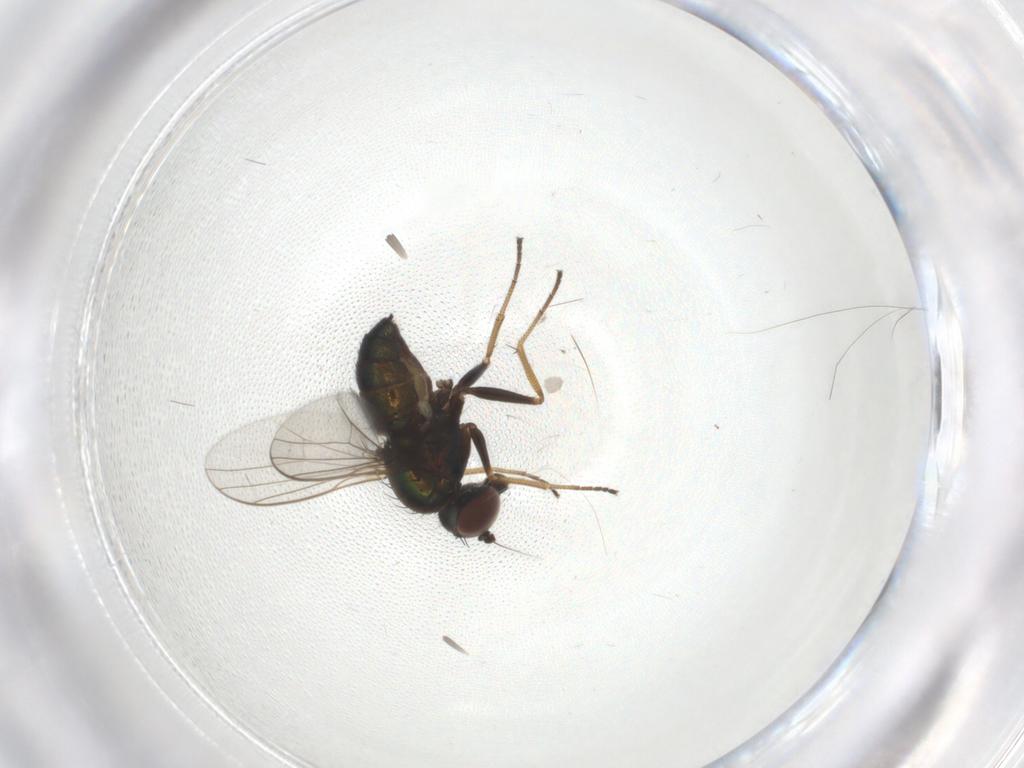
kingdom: Animalia
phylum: Arthropoda
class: Insecta
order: Diptera
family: Dolichopodidae
